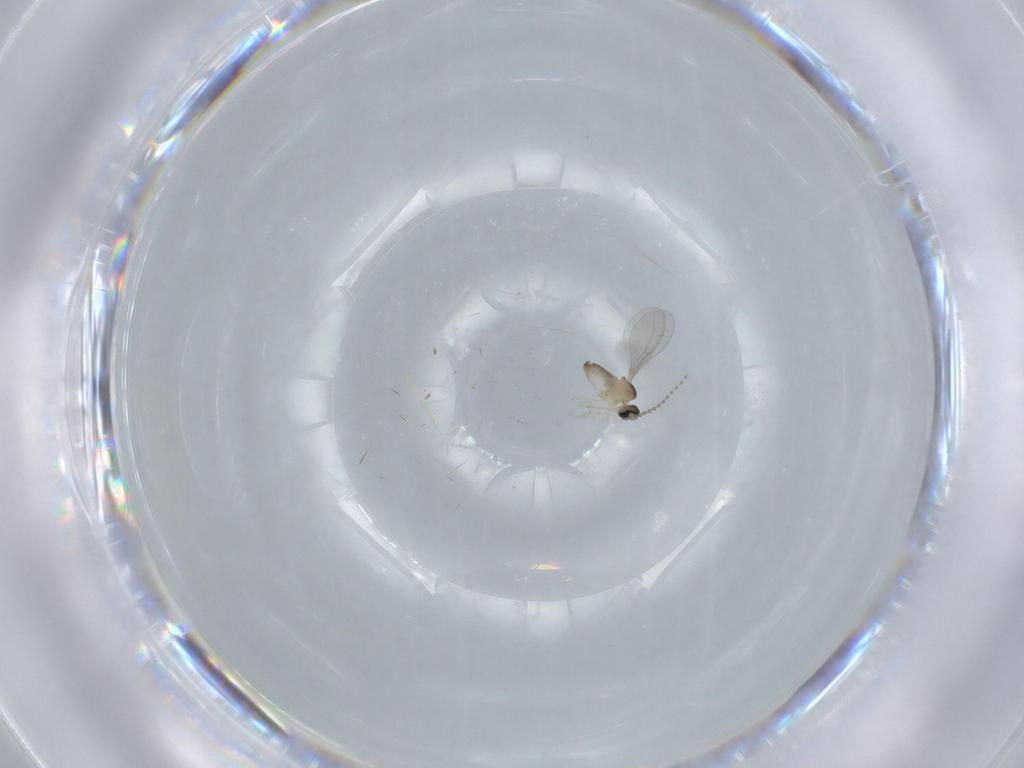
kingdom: Animalia
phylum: Arthropoda
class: Insecta
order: Diptera
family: Cecidomyiidae
